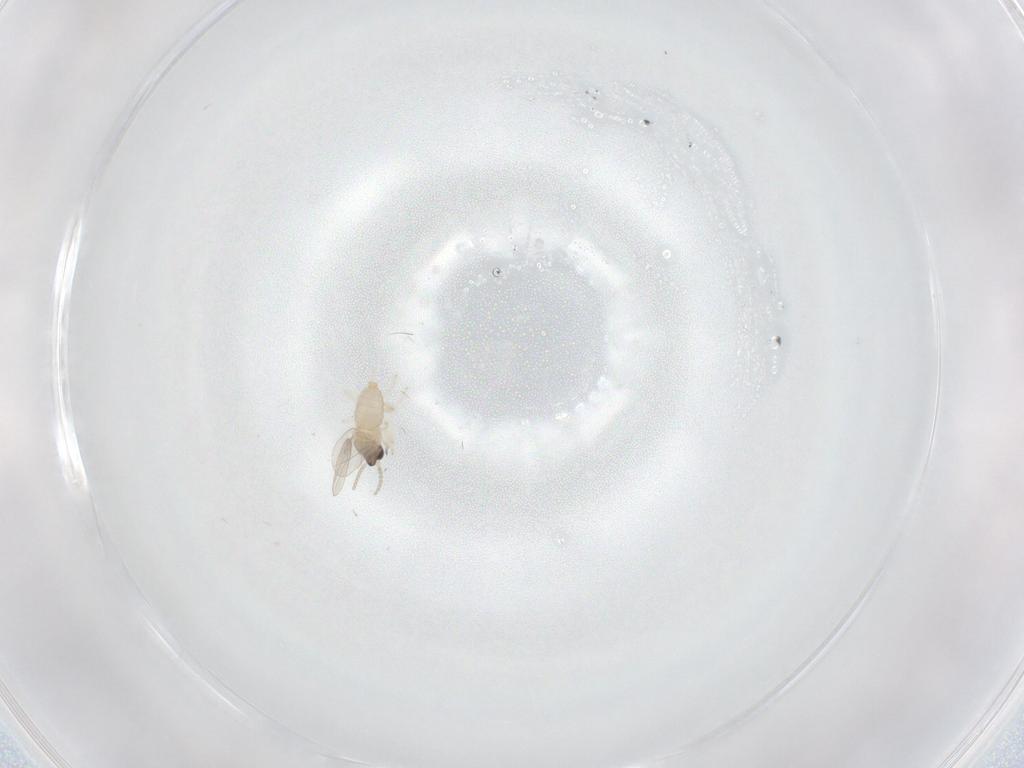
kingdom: Animalia
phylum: Arthropoda
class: Insecta
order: Diptera
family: Cecidomyiidae
